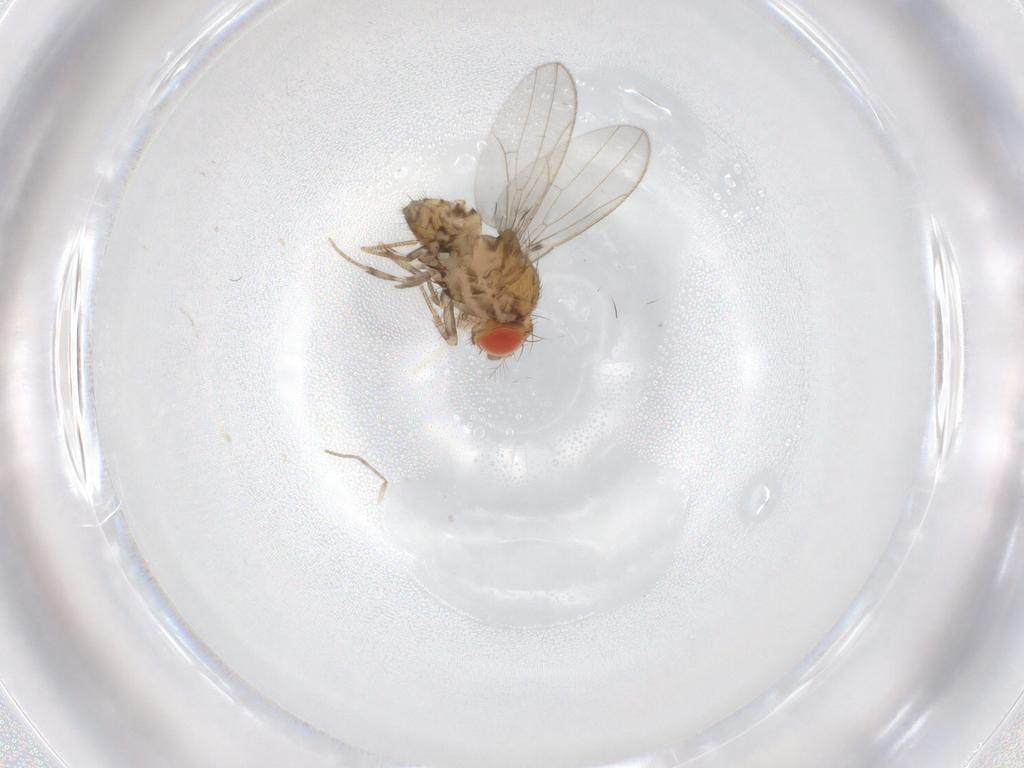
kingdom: Animalia
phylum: Arthropoda
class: Insecta
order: Diptera
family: Drosophilidae
